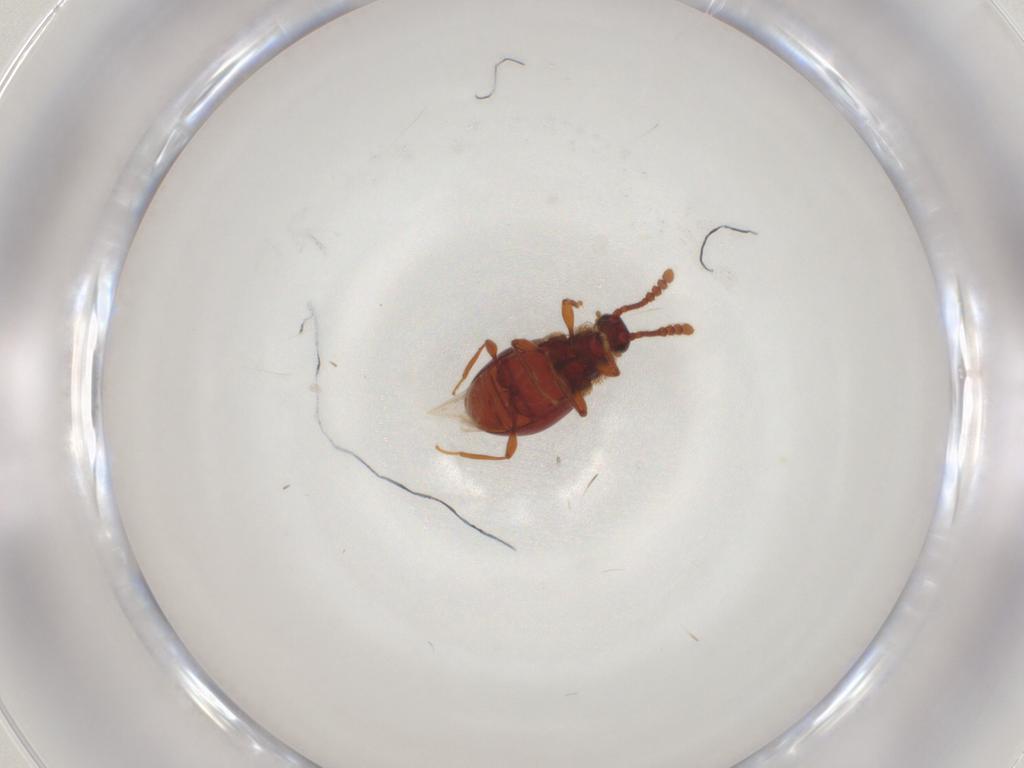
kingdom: Animalia
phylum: Arthropoda
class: Insecta
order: Coleoptera
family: Staphylinidae
